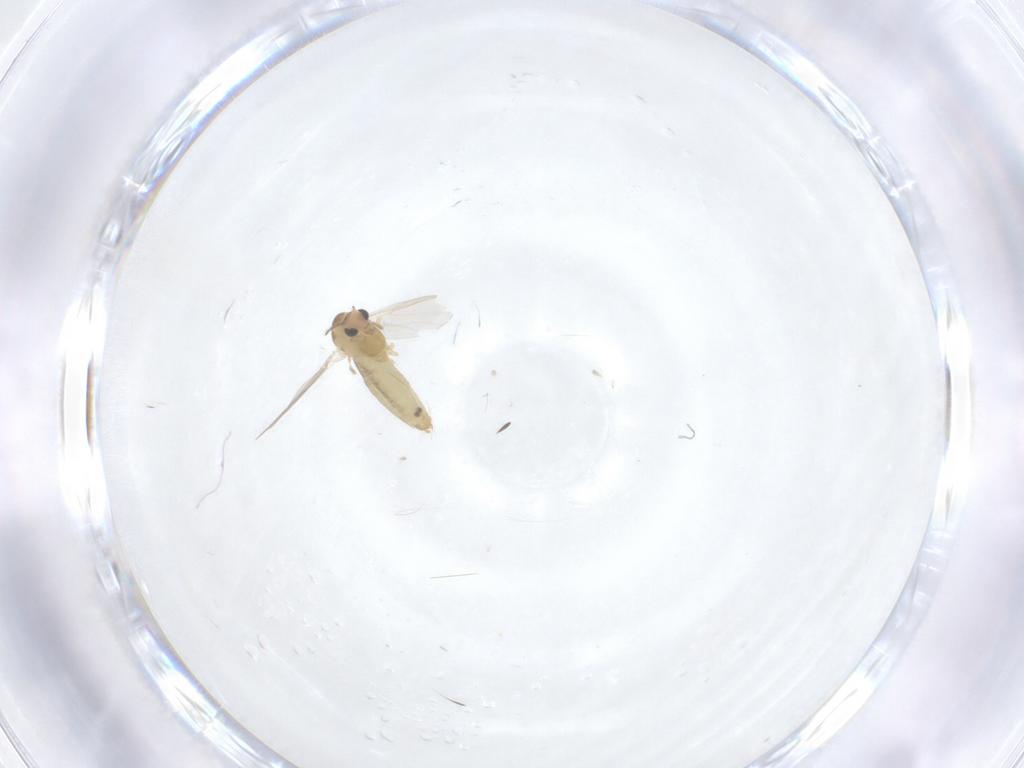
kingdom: Animalia
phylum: Arthropoda
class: Insecta
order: Diptera
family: Chironomidae
